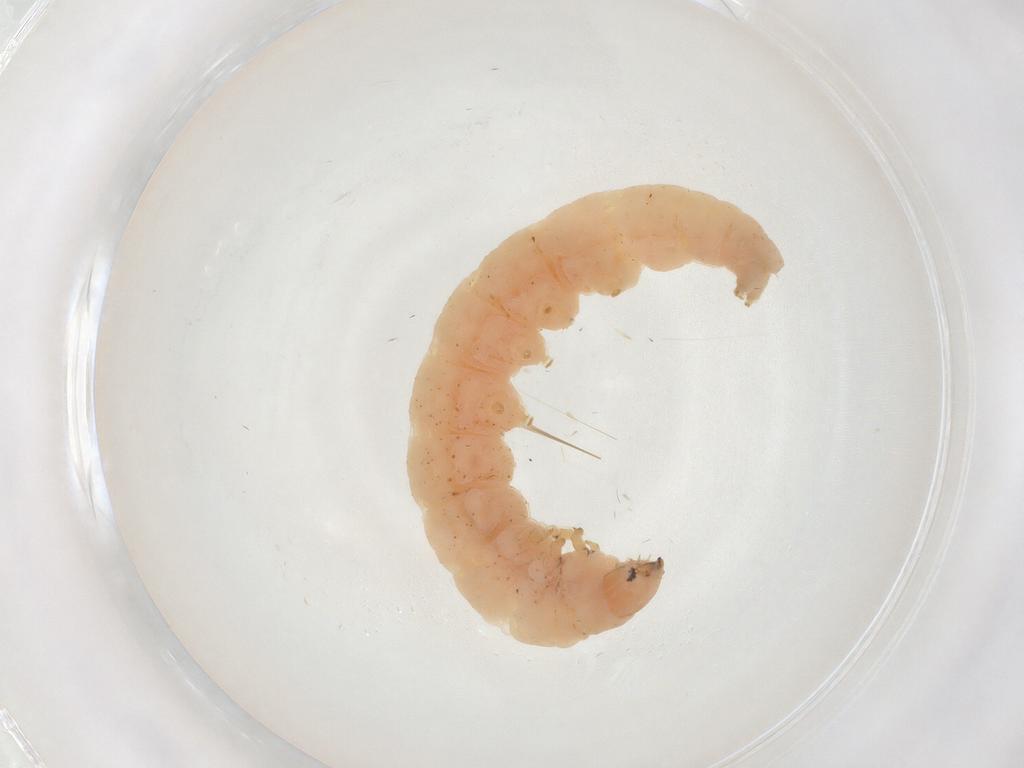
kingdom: Animalia
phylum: Arthropoda
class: Insecta
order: Lepidoptera
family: Gelechiidae
